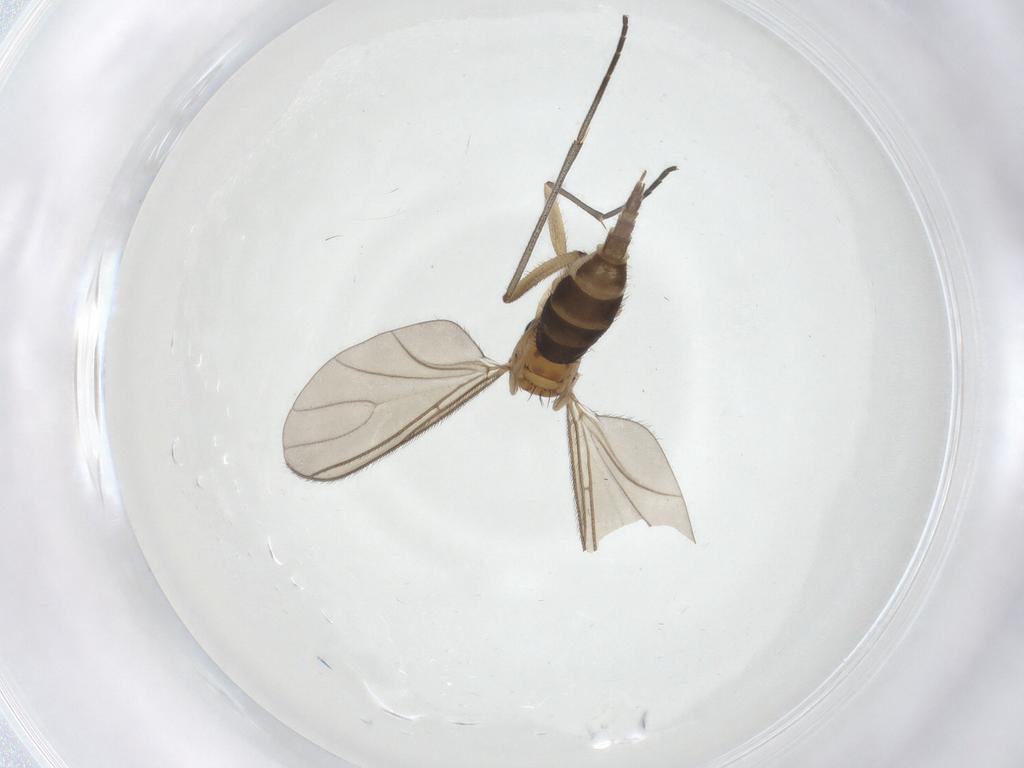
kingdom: Animalia
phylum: Arthropoda
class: Insecta
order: Diptera
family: Sciaridae
